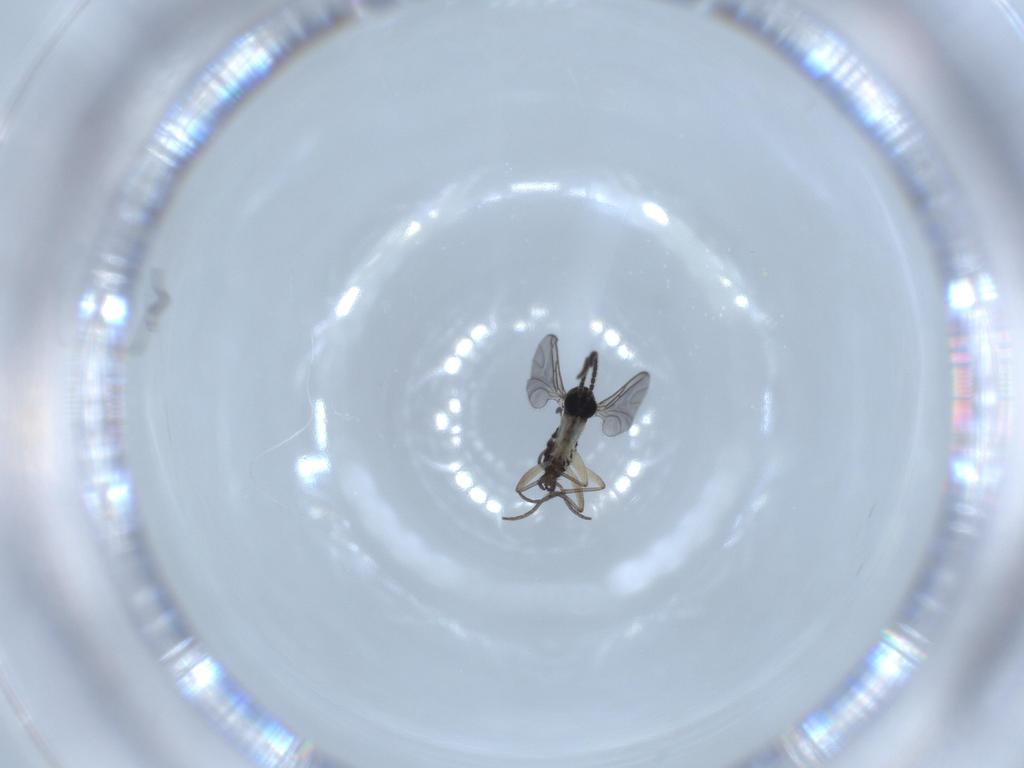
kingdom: Animalia
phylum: Arthropoda
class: Insecta
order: Diptera
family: Sciaridae
